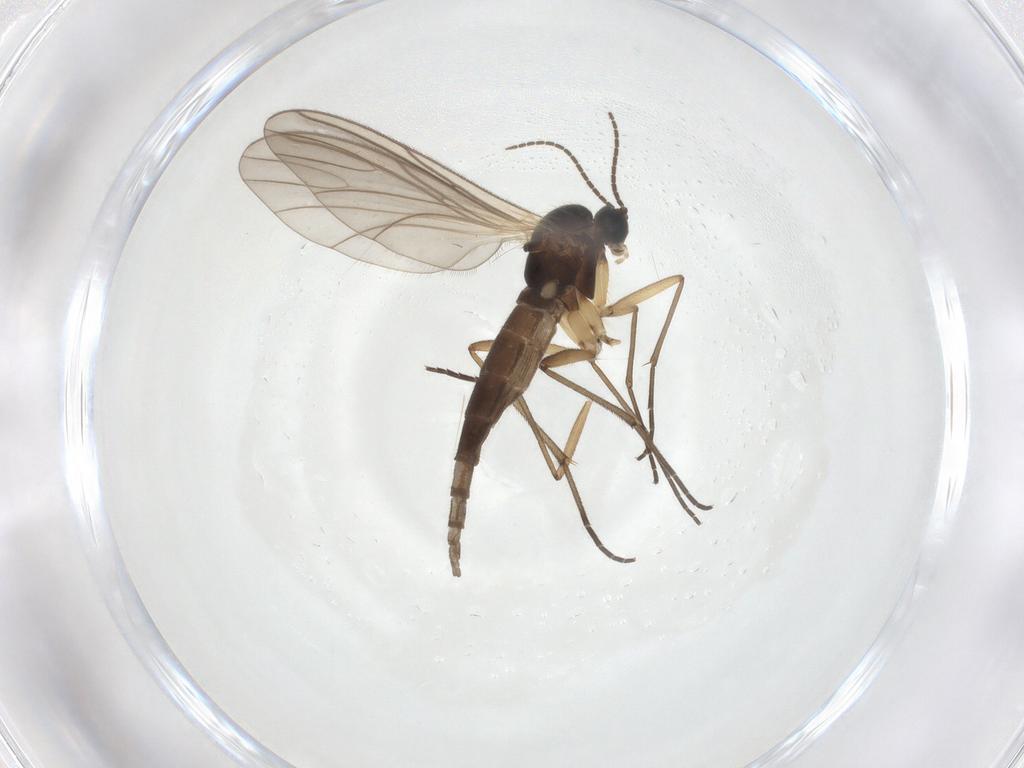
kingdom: Animalia
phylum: Arthropoda
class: Insecta
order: Diptera
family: Sciaridae
